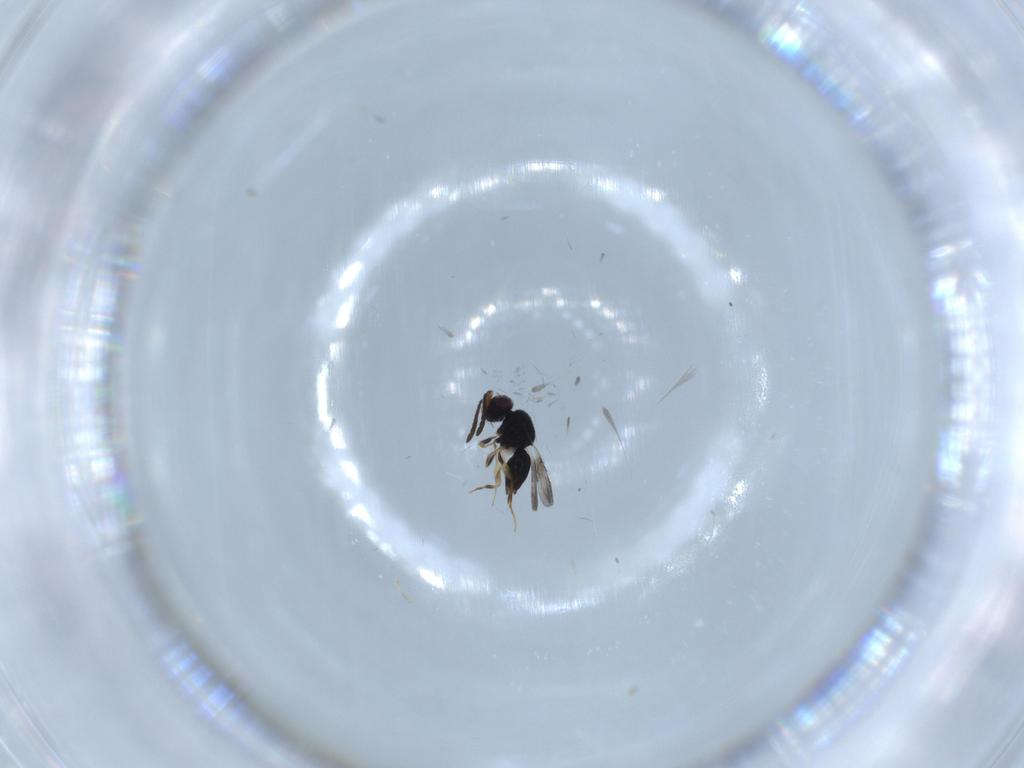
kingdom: Animalia
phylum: Arthropoda
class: Insecta
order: Hymenoptera
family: Ceraphronidae
